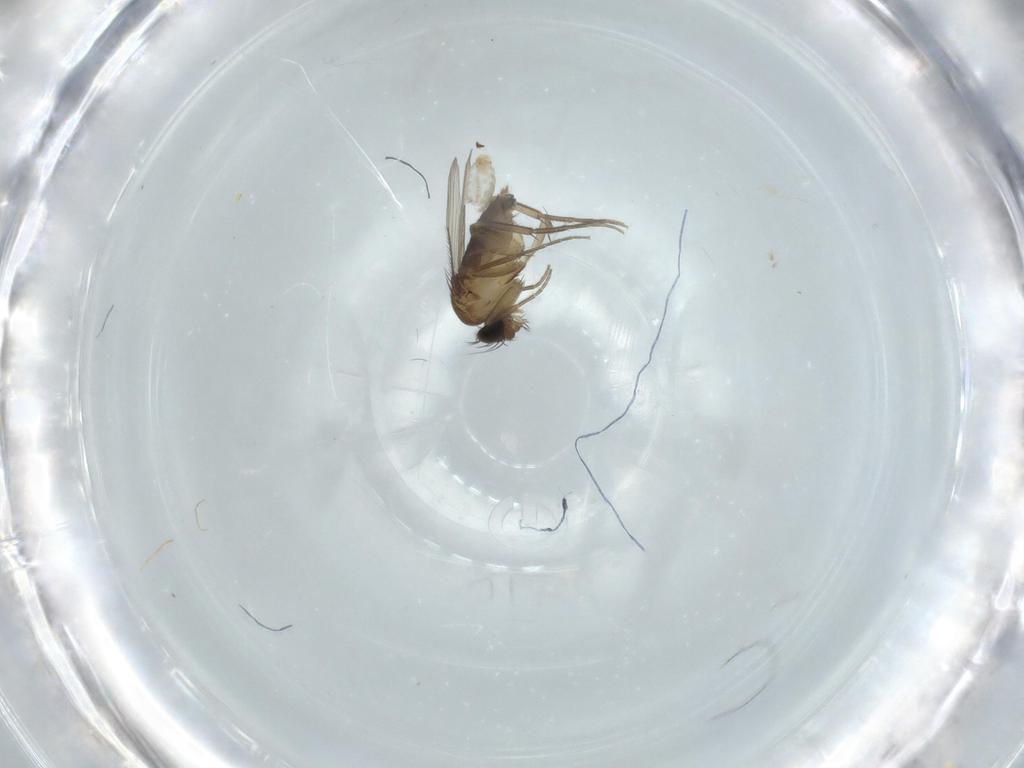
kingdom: Animalia
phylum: Arthropoda
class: Insecta
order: Diptera
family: Phoridae
